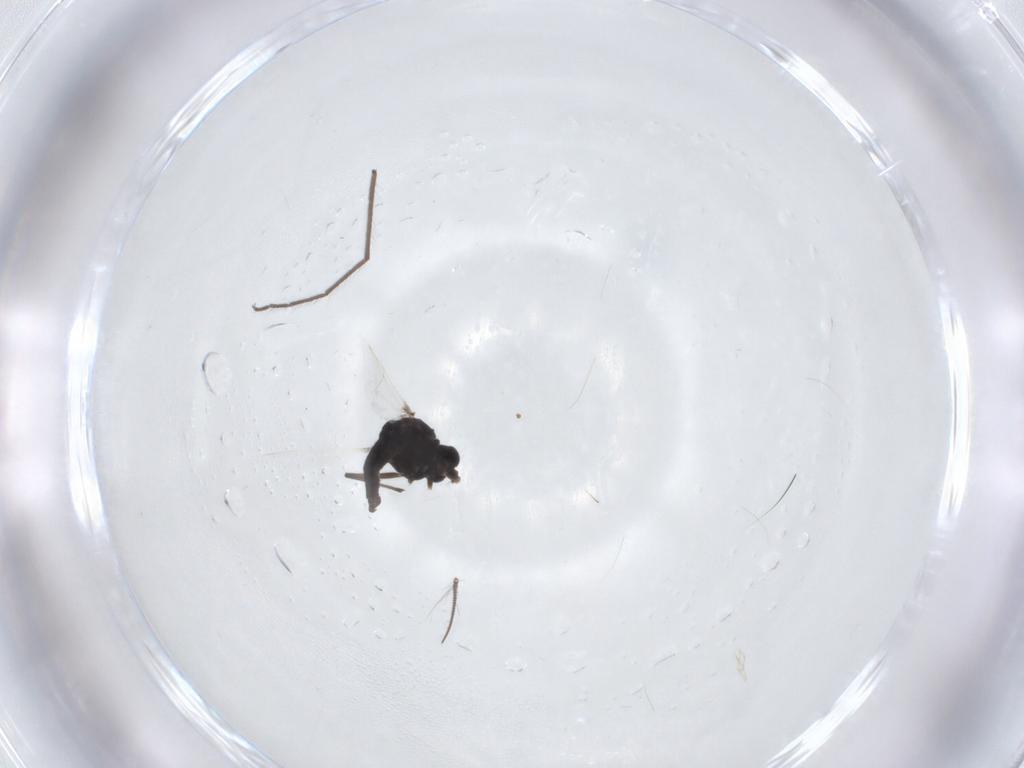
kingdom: Animalia
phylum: Arthropoda
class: Insecta
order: Diptera
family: Chironomidae
